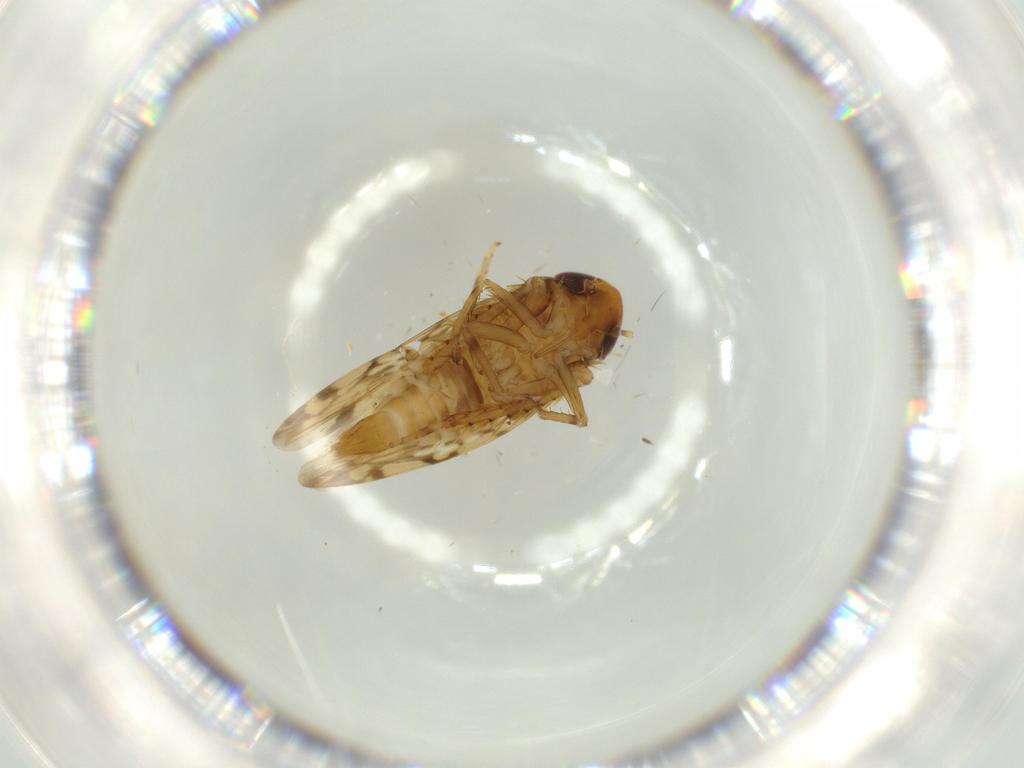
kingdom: Animalia
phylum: Arthropoda
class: Insecta
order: Hemiptera
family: Cicadellidae
